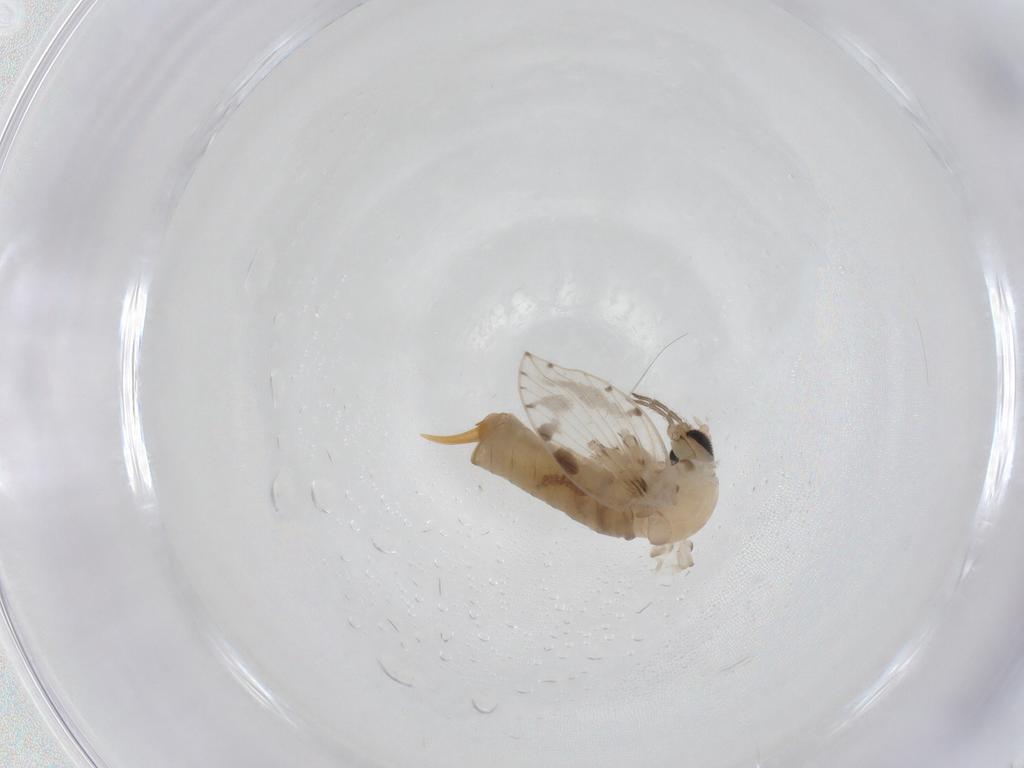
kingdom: Animalia
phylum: Arthropoda
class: Insecta
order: Diptera
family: Psychodidae
